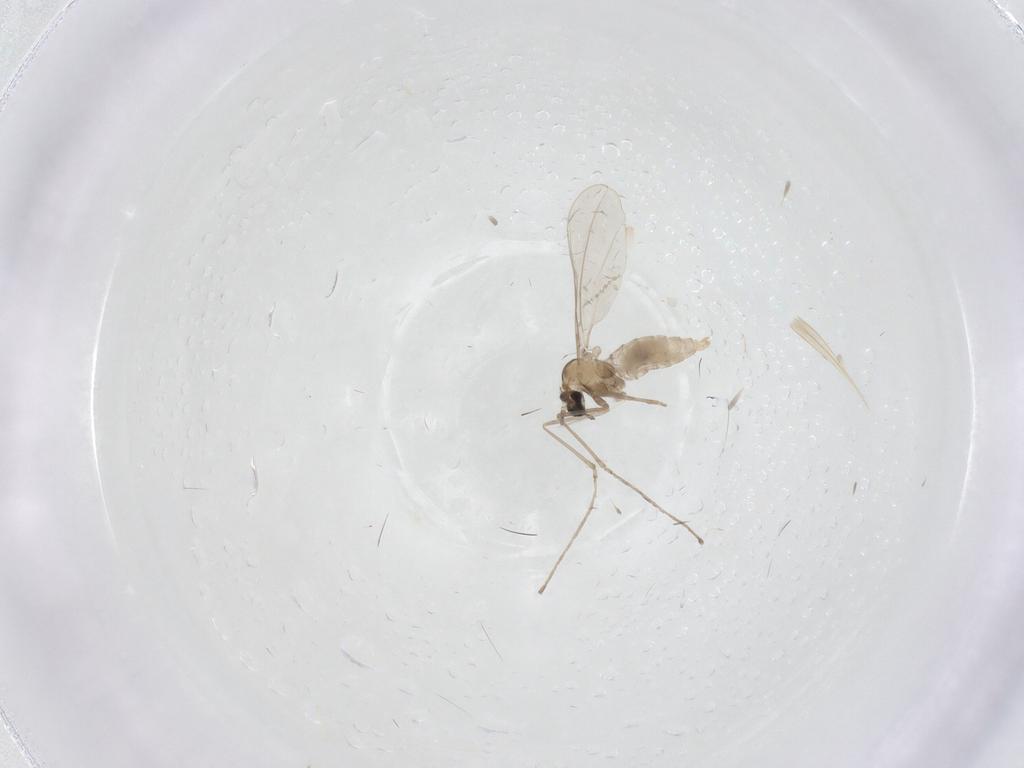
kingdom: Animalia
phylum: Arthropoda
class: Insecta
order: Diptera
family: Cecidomyiidae
